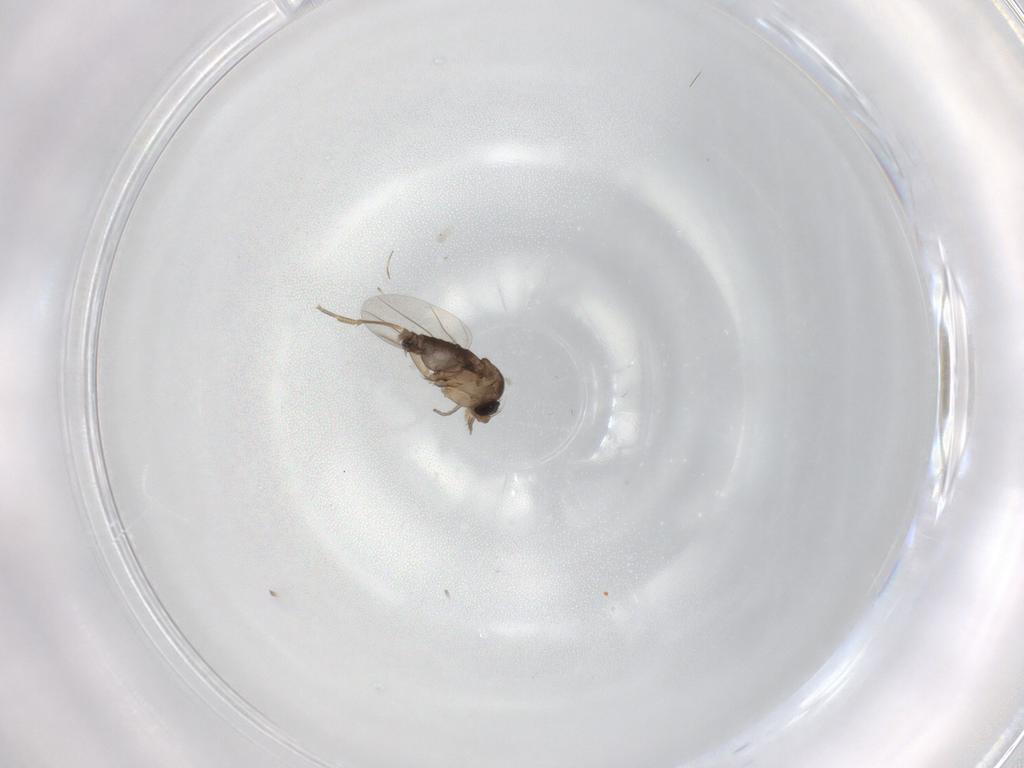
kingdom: Animalia
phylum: Arthropoda
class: Insecta
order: Diptera
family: Phoridae
